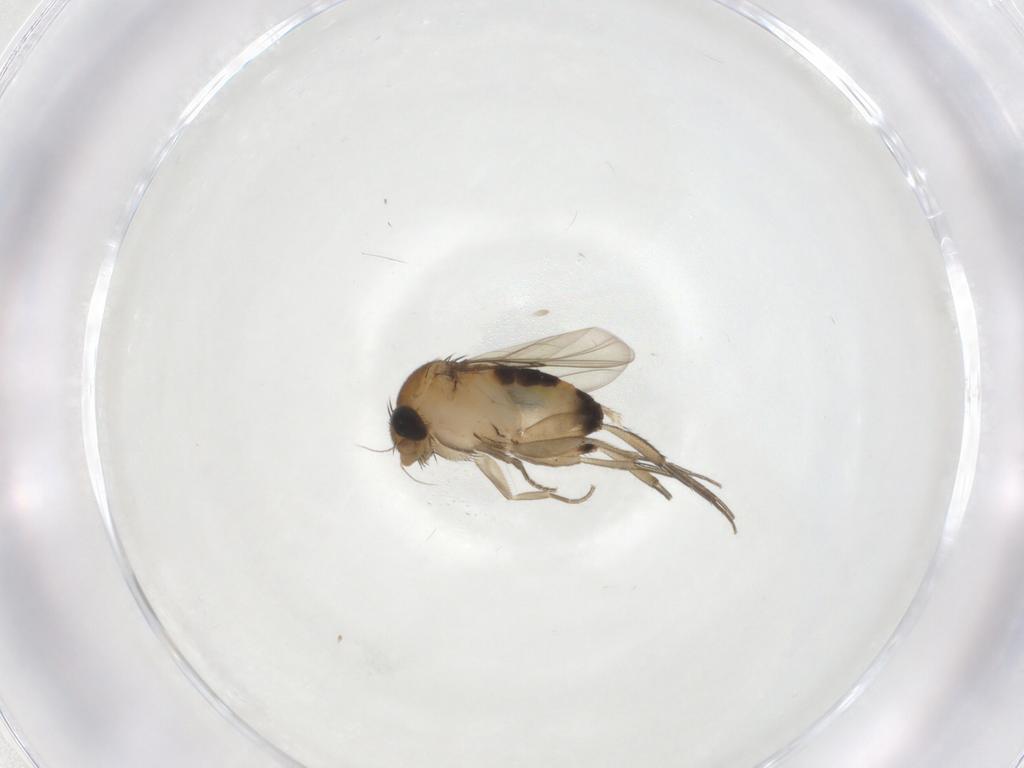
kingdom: Animalia
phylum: Arthropoda
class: Insecta
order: Diptera
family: Phoridae
